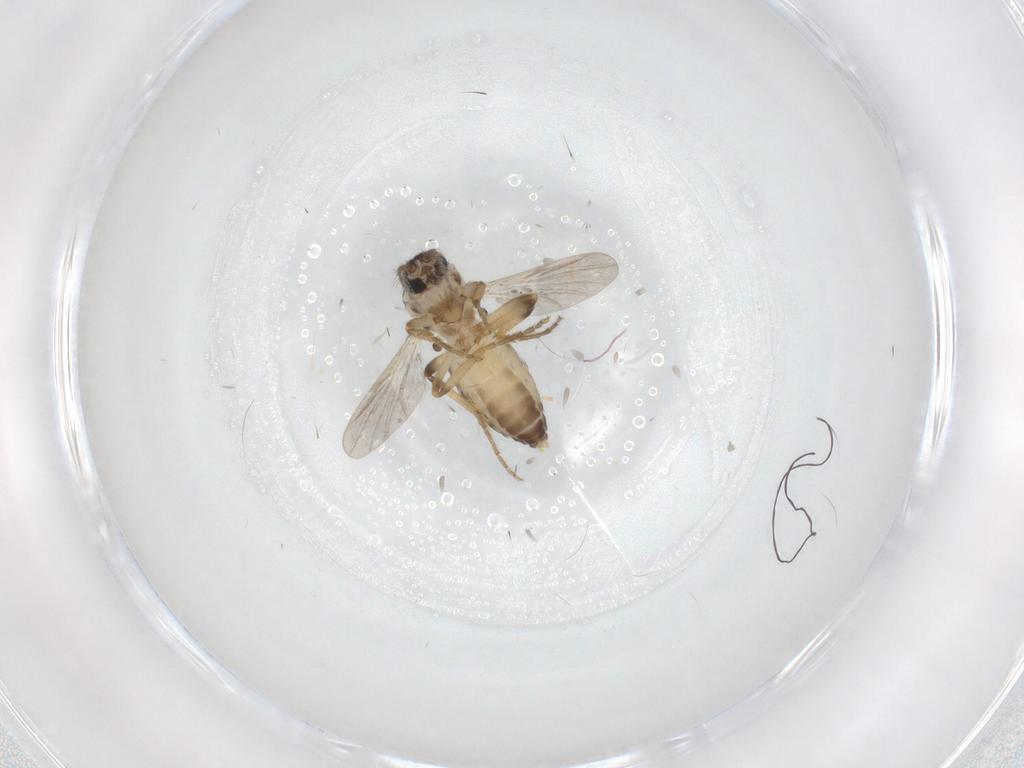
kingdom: Animalia
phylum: Arthropoda
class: Insecta
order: Diptera
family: Ceratopogonidae
